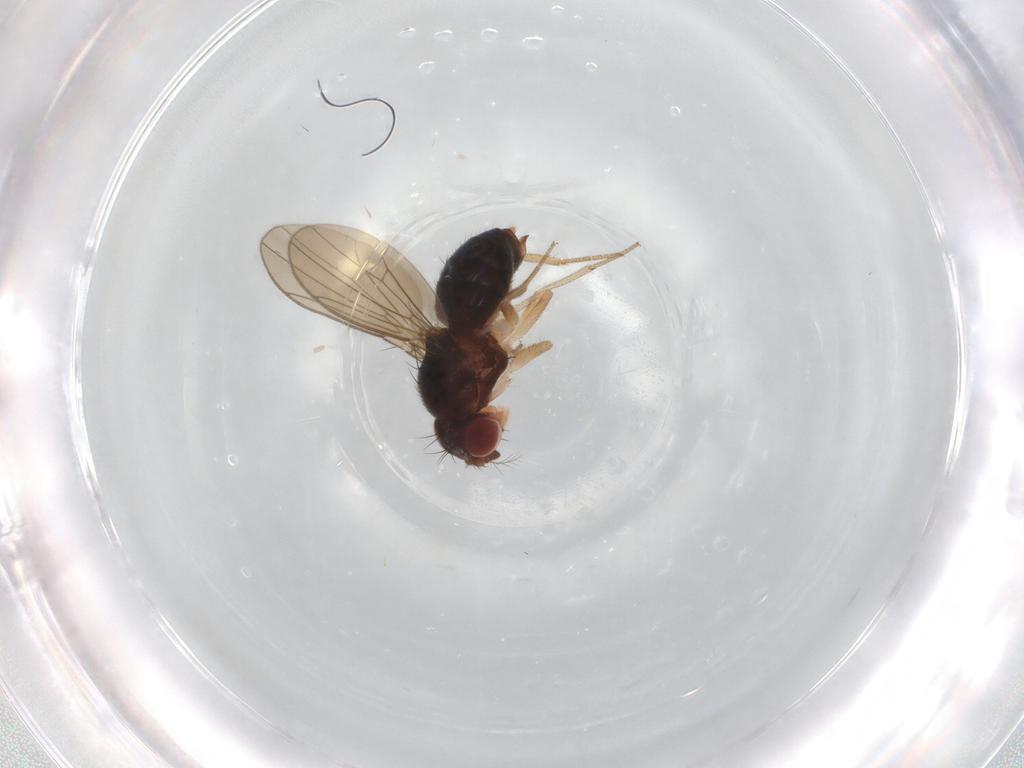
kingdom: Animalia
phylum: Arthropoda
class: Insecta
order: Diptera
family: Drosophilidae
